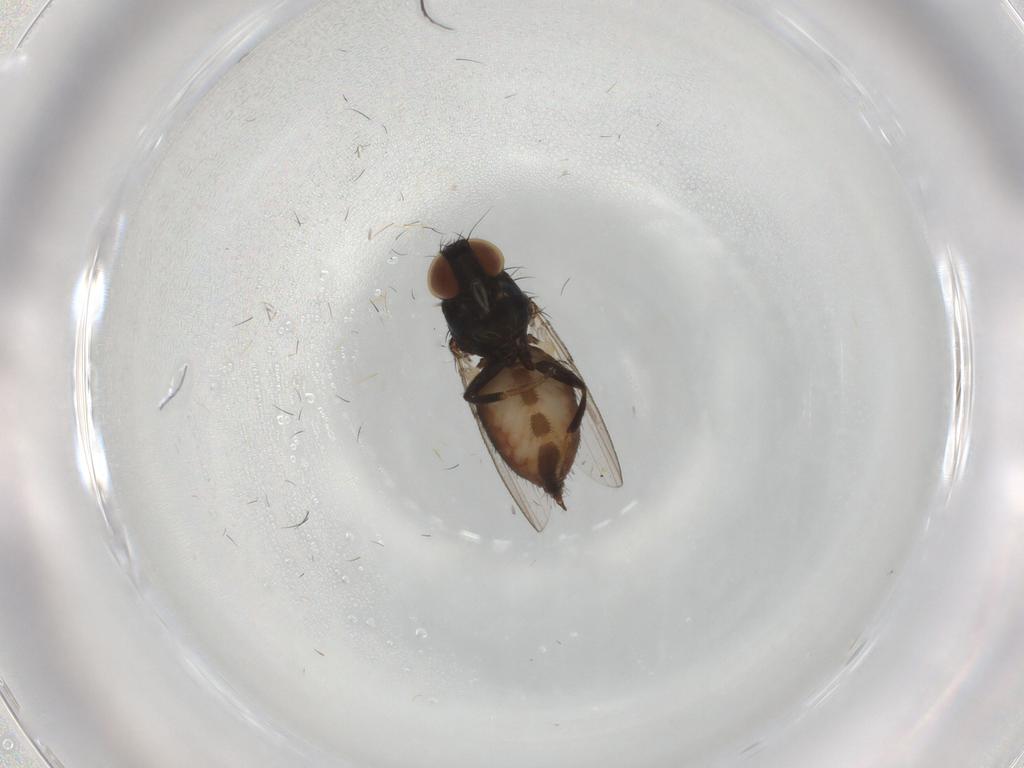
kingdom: Animalia
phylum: Arthropoda
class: Insecta
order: Diptera
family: Milichiidae
